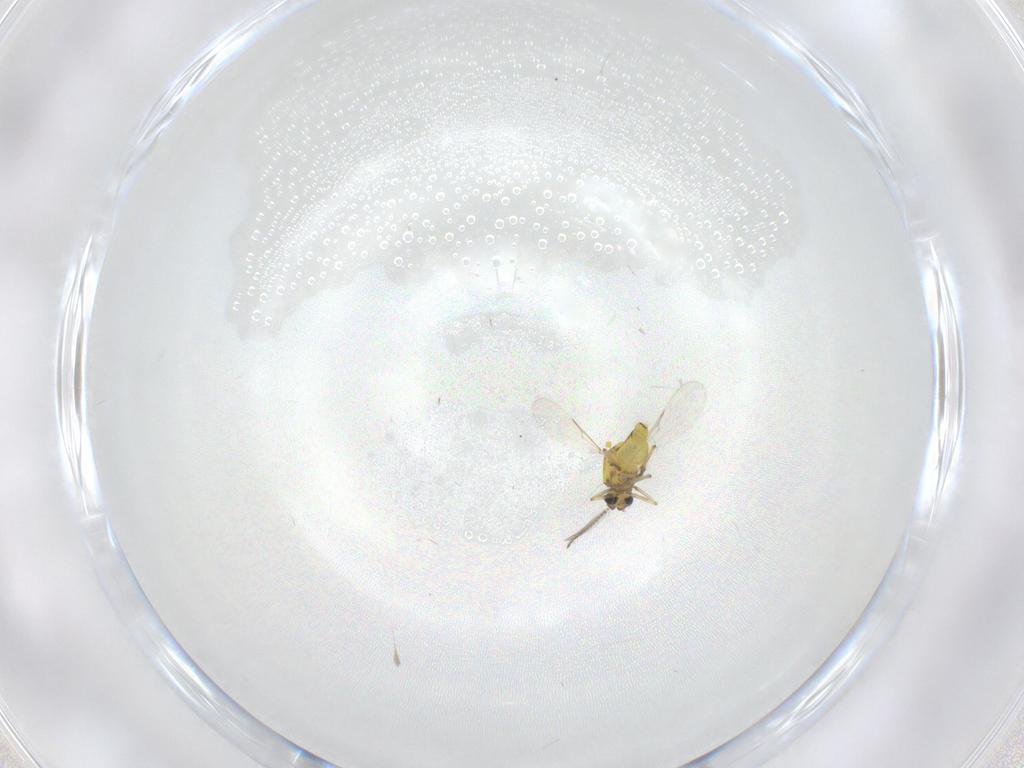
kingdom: Animalia
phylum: Arthropoda
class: Insecta
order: Diptera
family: Ceratopogonidae
